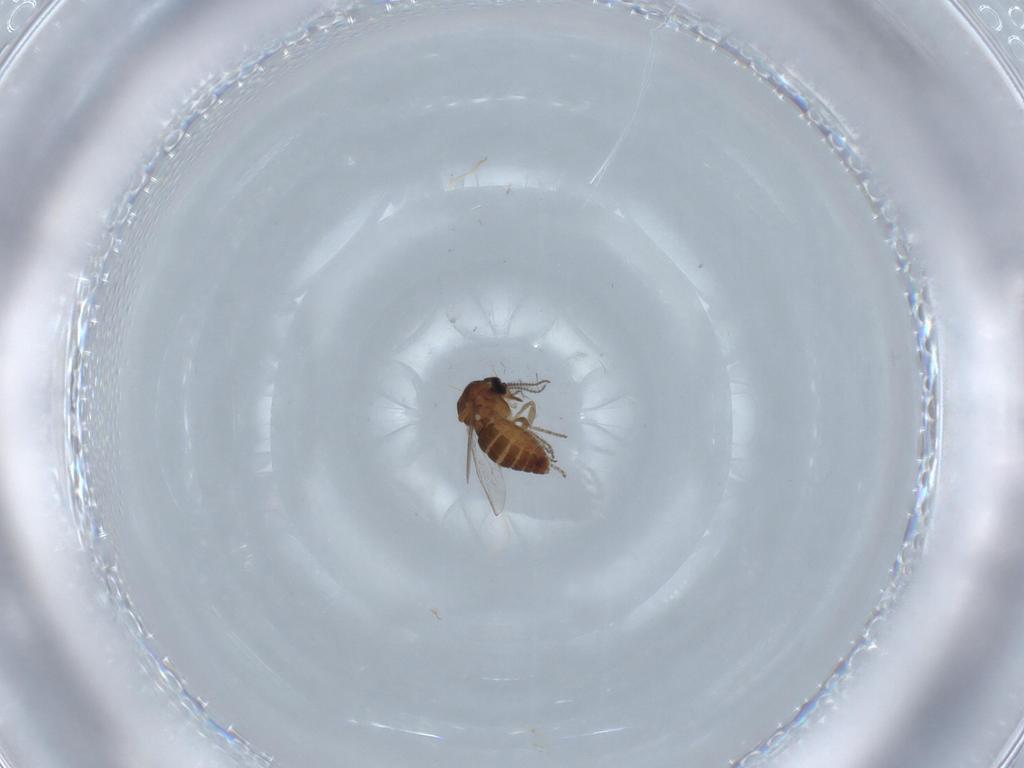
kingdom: Animalia
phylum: Arthropoda
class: Insecta
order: Diptera
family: Ceratopogonidae
